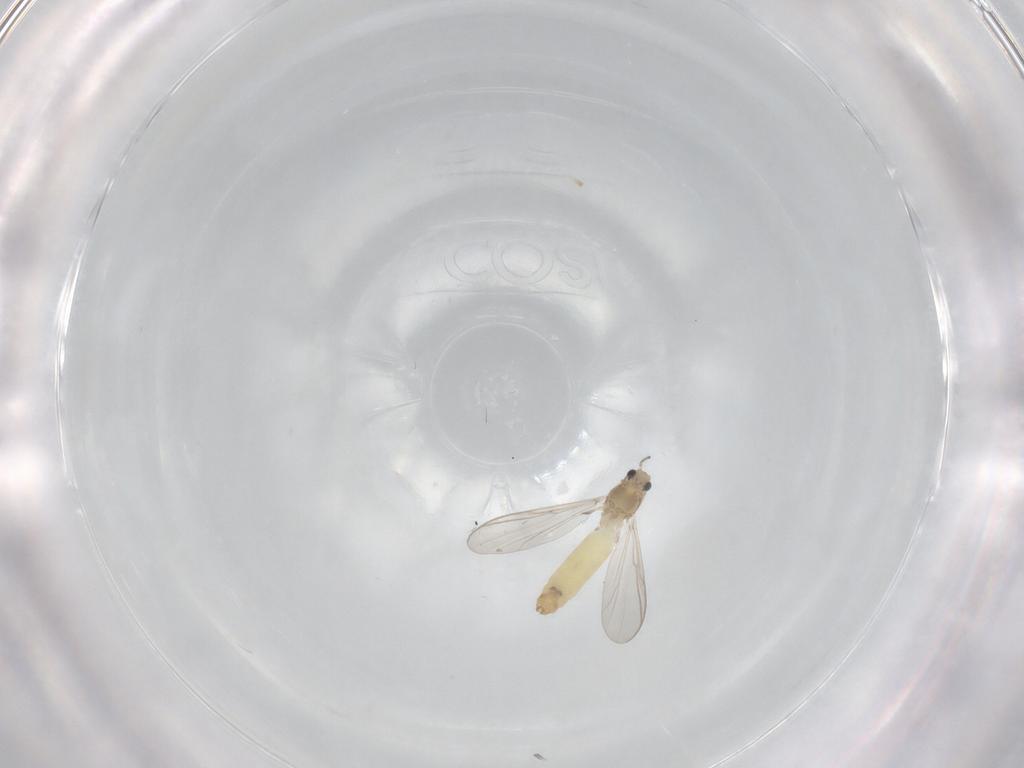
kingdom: Animalia
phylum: Arthropoda
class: Insecta
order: Diptera
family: Chironomidae
